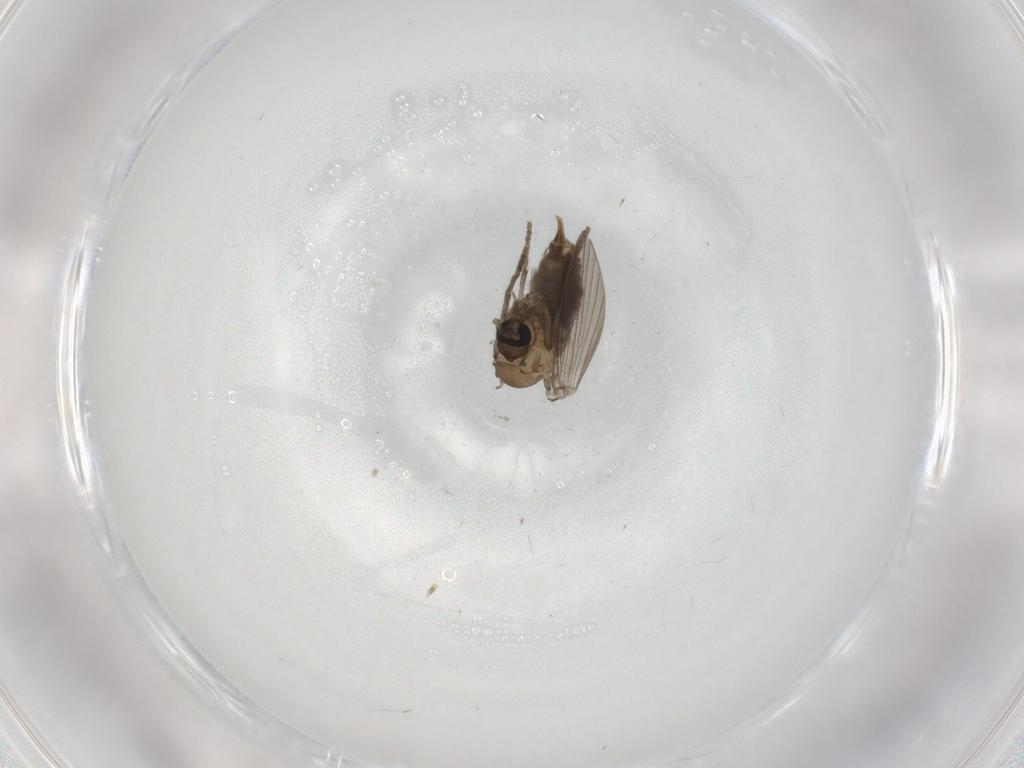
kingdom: Animalia
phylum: Arthropoda
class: Insecta
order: Diptera
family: Psychodidae
